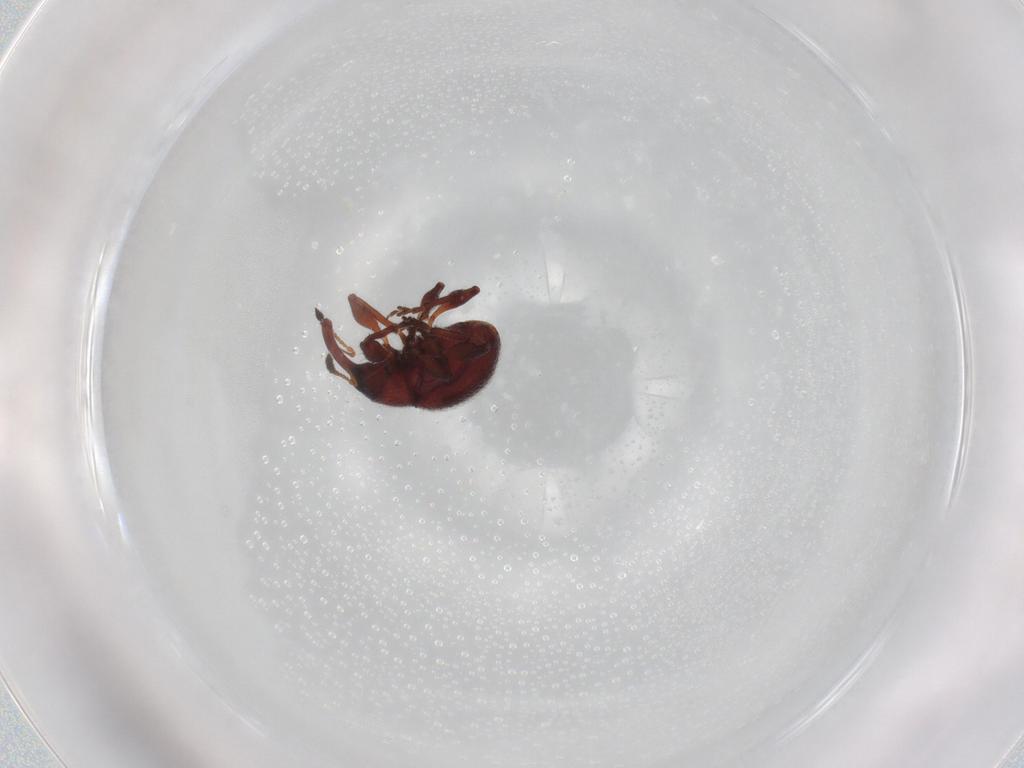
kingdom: Animalia
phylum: Arthropoda
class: Insecta
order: Coleoptera
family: Brentidae
